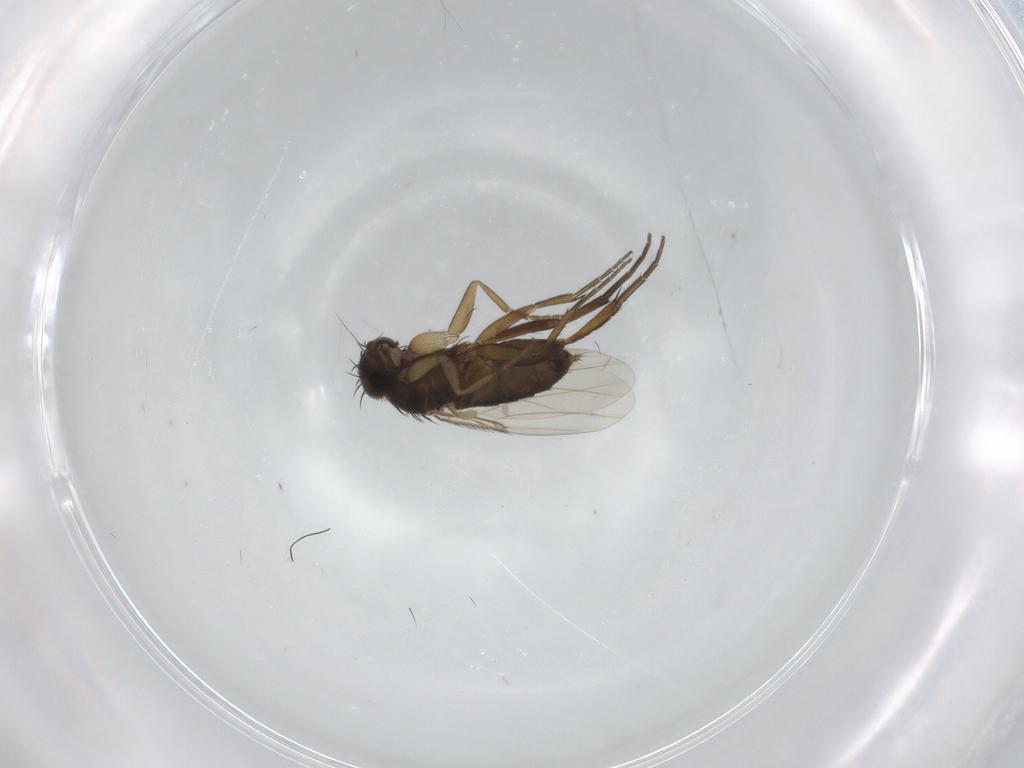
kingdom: Animalia
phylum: Arthropoda
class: Insecta
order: Diptera
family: Phoridae
